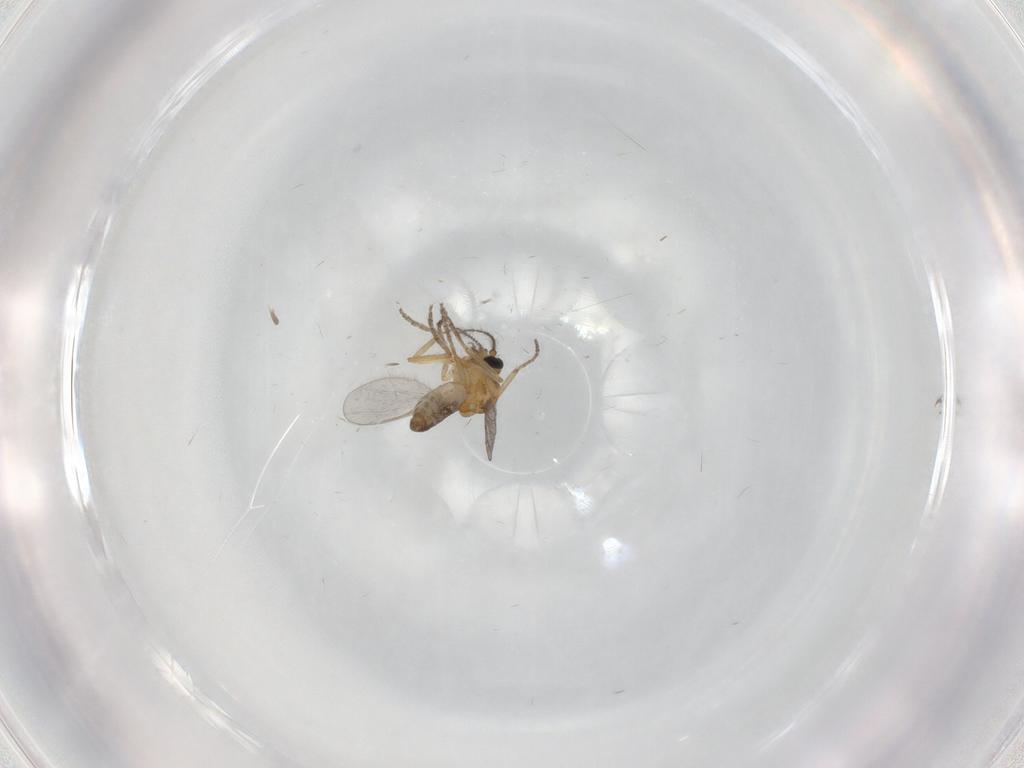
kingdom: Animalia
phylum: Arthropoda
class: Insecta
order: Diptera
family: Ceratopogonidae
